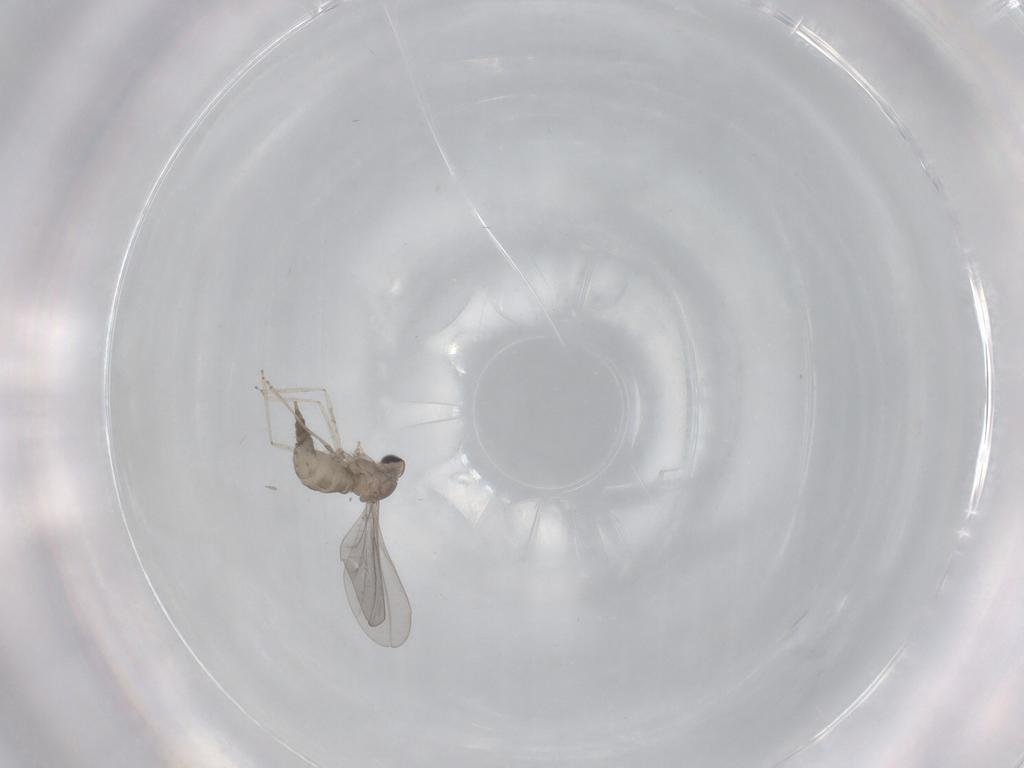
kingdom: Animalia
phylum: Arthropoda
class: Insecta
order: Diptera
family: Cecidomyiidae
